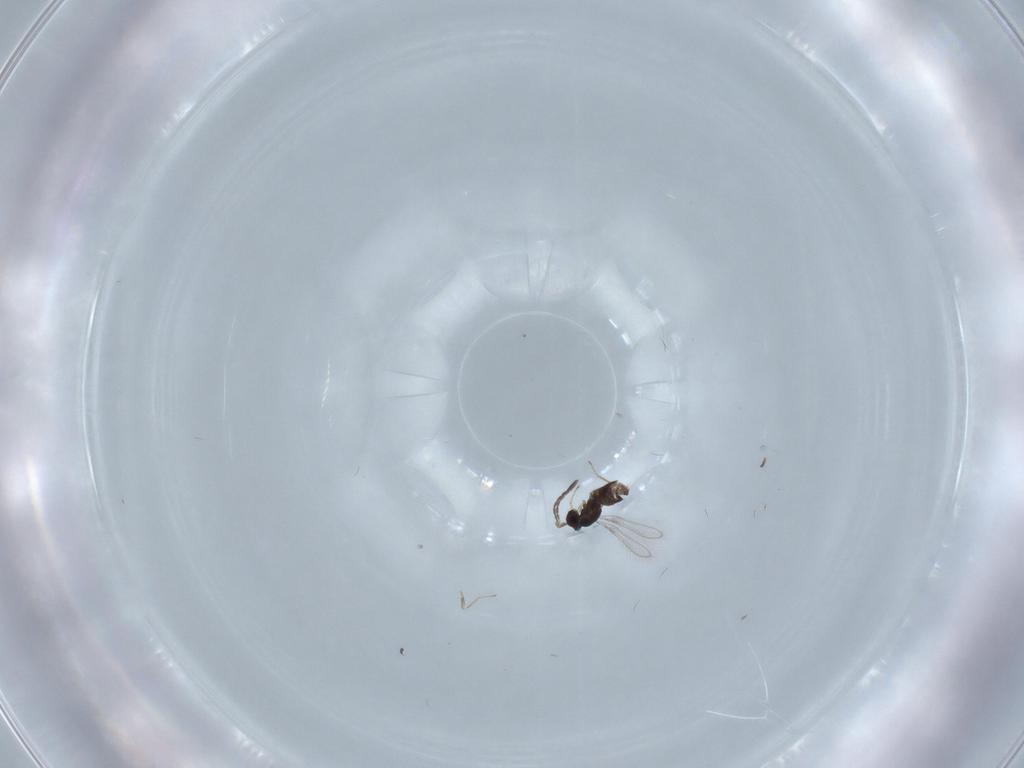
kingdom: Animalia
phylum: Arthropoda
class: Insecta
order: Hymenoptera
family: Mymaridae
